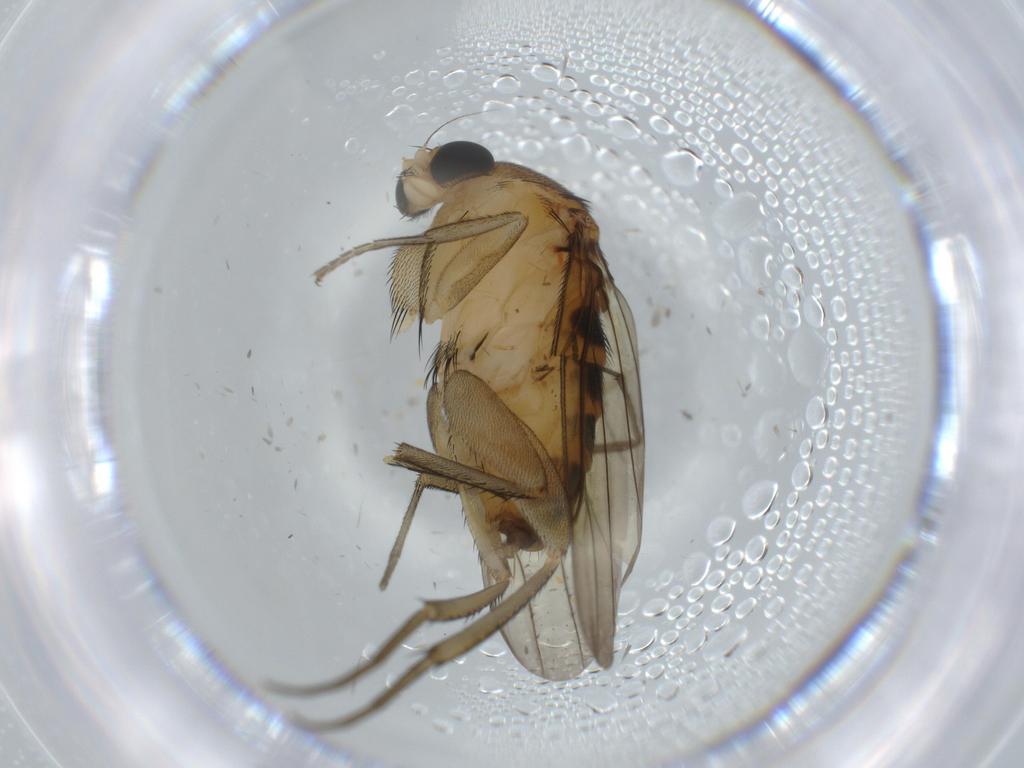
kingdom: Animalia
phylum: Arthropoda
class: Insecta
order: Diptera
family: Sciaridae
